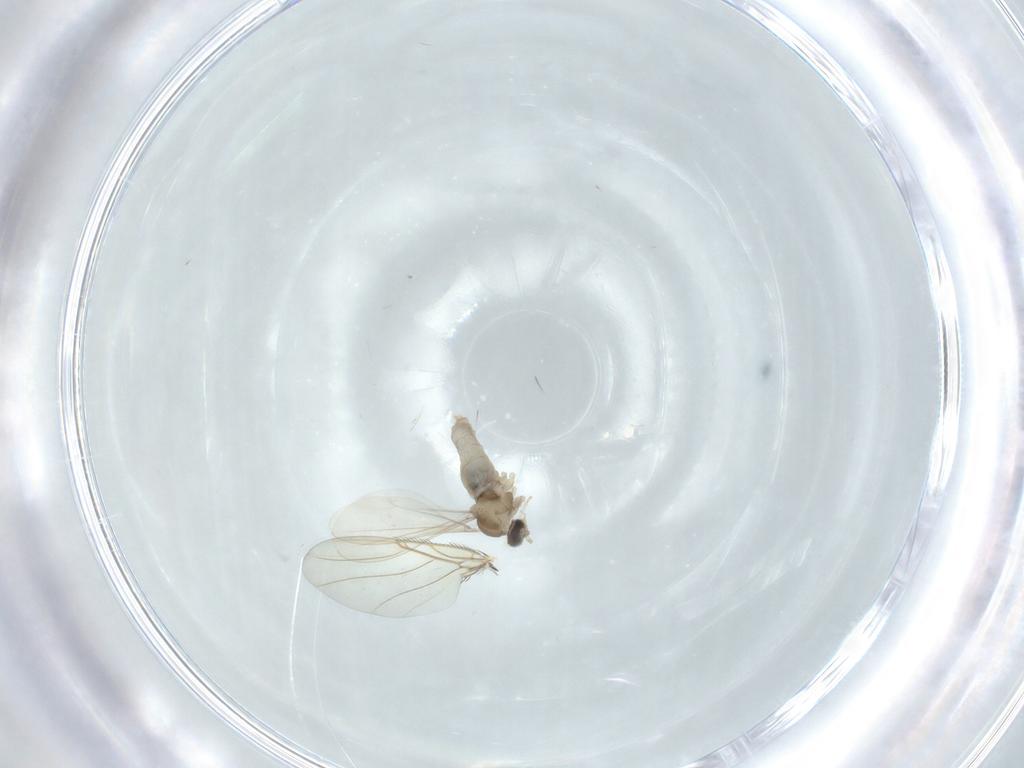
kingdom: Animalia
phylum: Arthropoda
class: Insecta
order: Diptera
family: Cecidomyiidae
